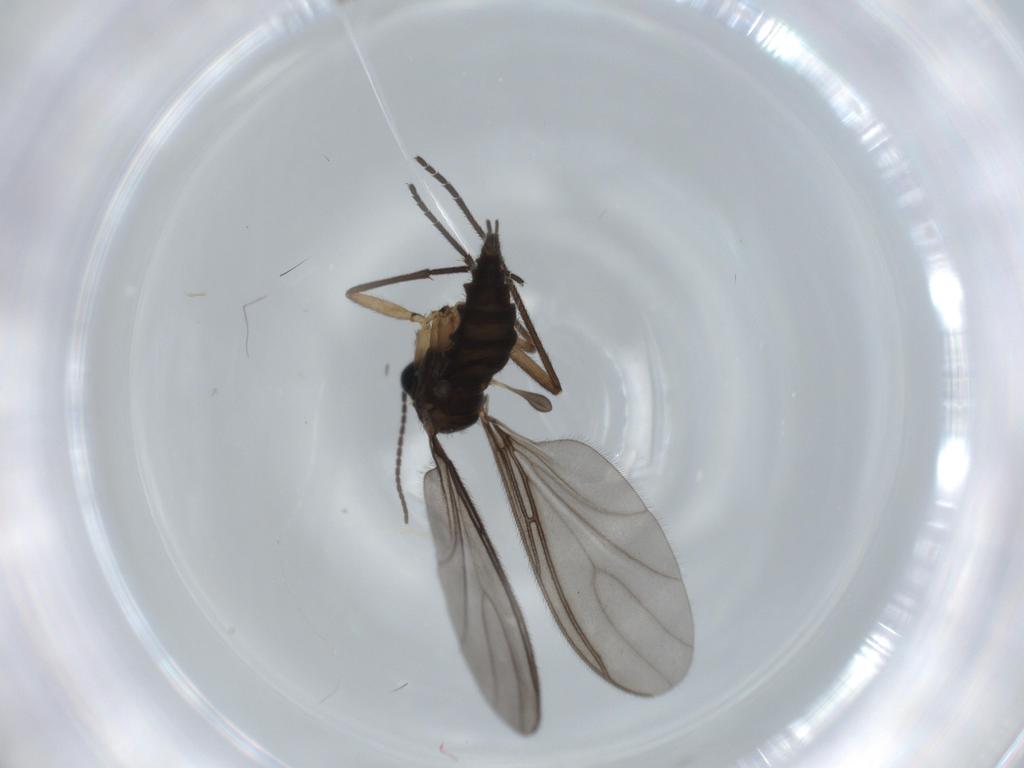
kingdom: Animalia
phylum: Arthropoda
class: Insecta
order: Diptera
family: Sciaridae
